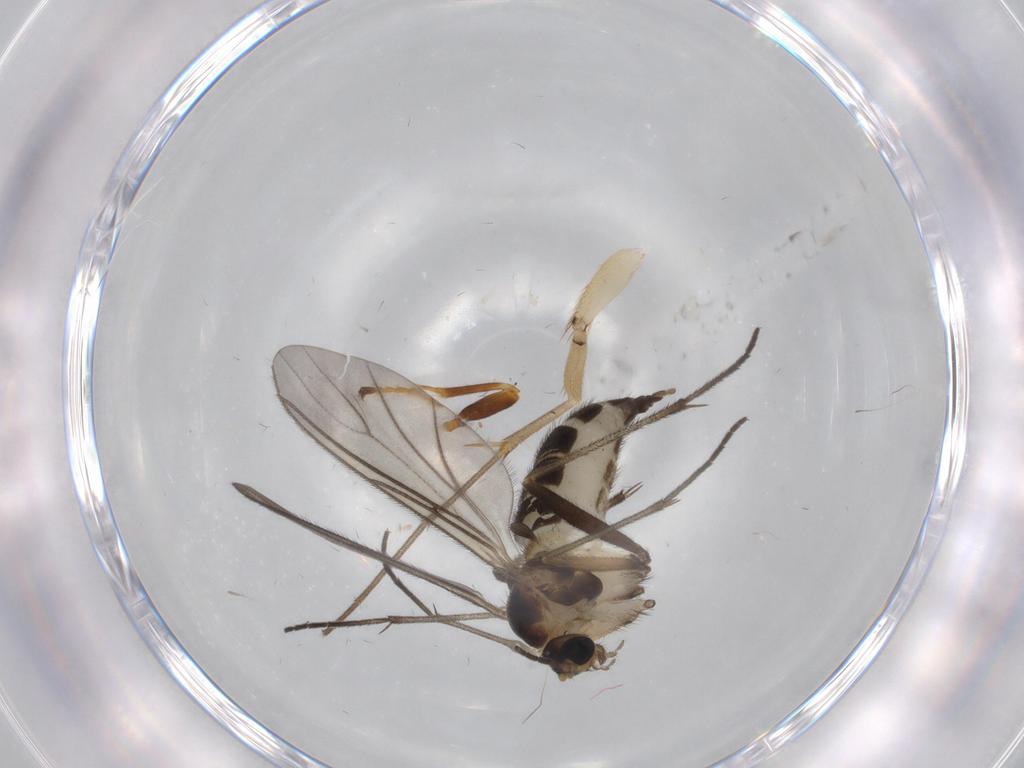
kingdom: Animalia
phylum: Arthropoda
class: Insecta
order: Diptera
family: Sciaridae
